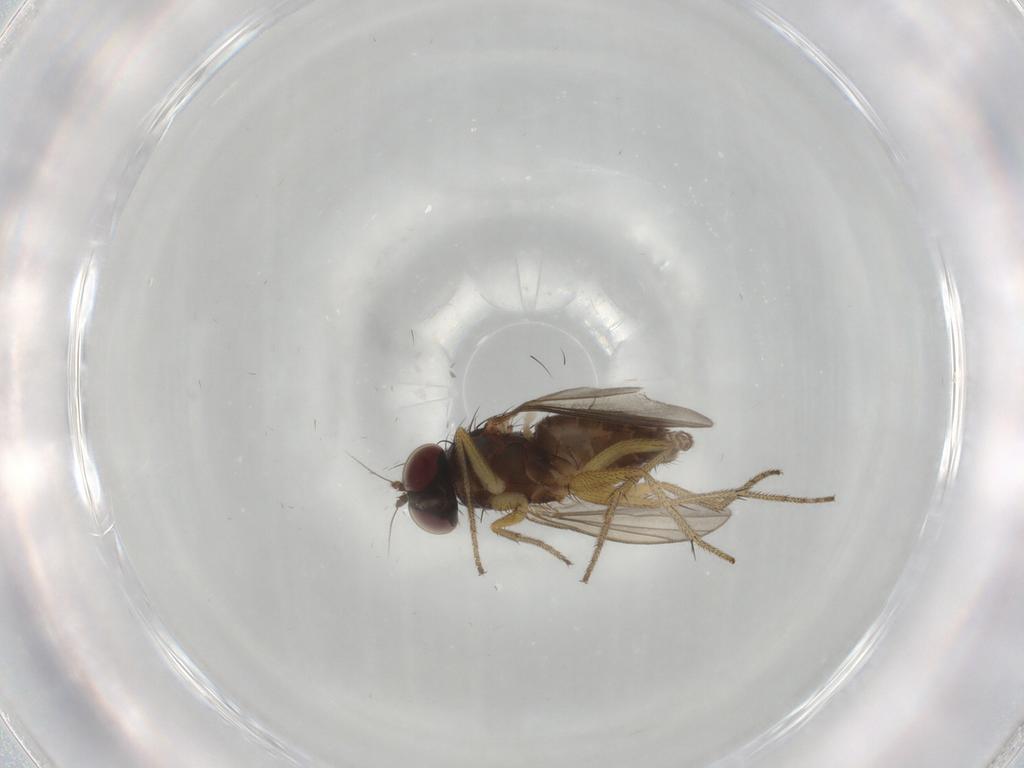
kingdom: Animalia
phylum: Arthropoda
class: Insecta
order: Diptera
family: Dolichopodidae
